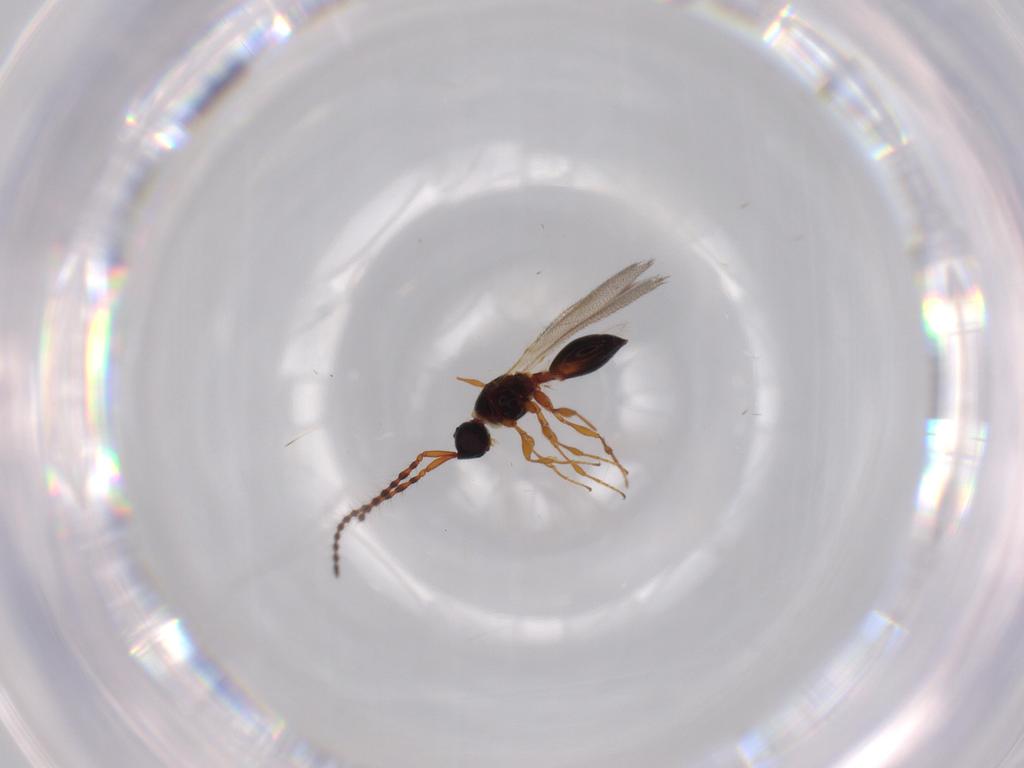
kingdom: Animalia
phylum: Arthropoda
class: Insecta
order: Hymenoptera
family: Diapriidae
